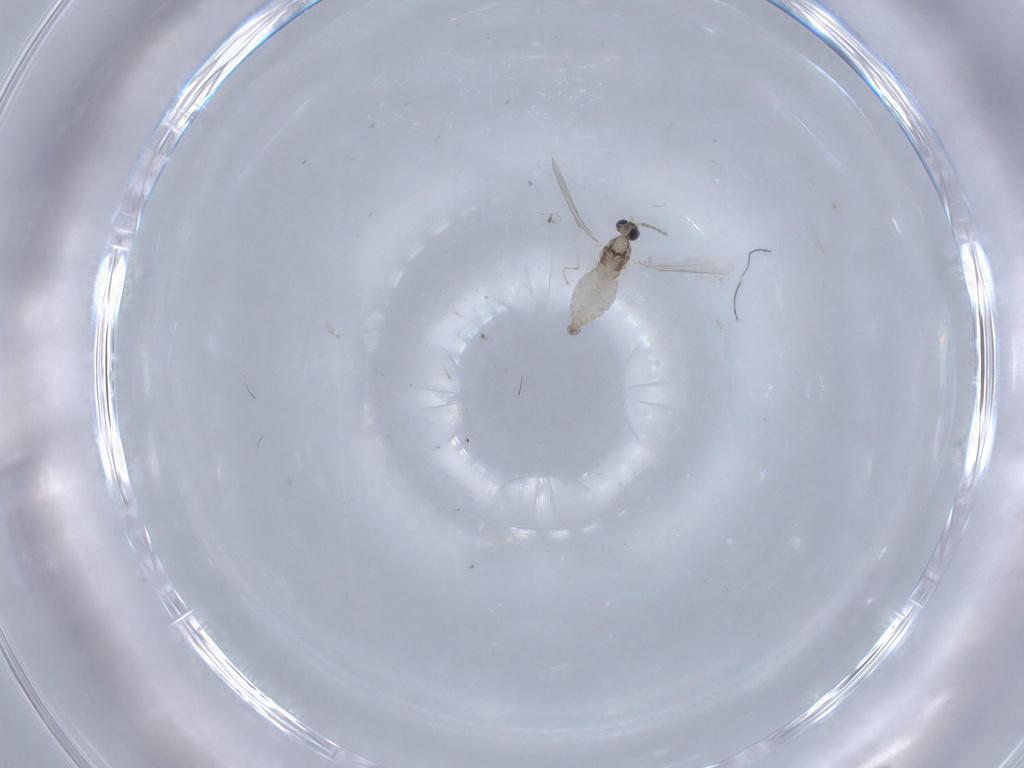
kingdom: Animalia
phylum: Arthropoda
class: Insecta
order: Diptera
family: Cecidomyiidae
